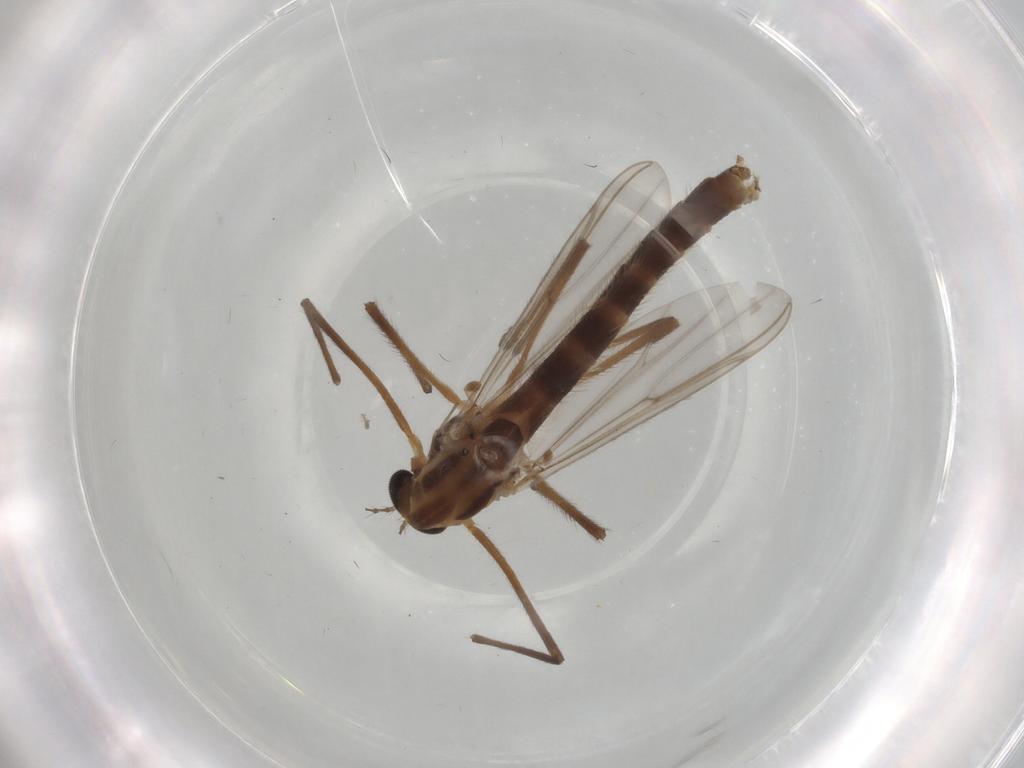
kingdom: Animalia
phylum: Arthropoda
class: Insecta
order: Diptera
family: Chironomidae
